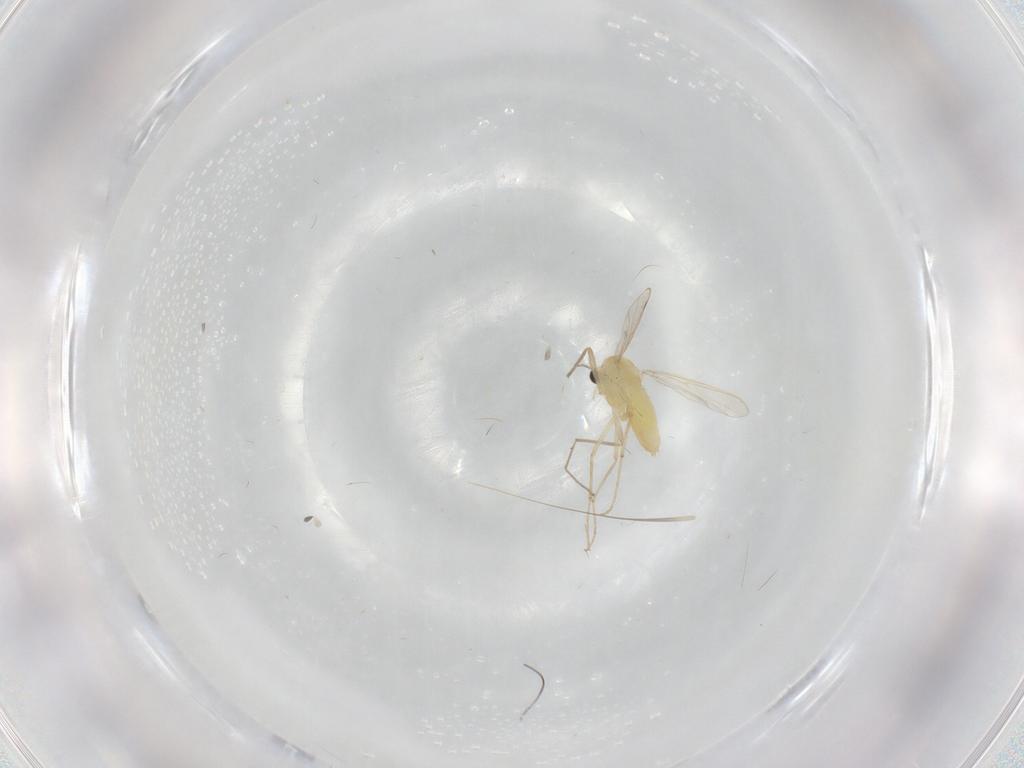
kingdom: Animalia
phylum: Arthropoda
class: Insecta
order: Diptera
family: Chironomidae
